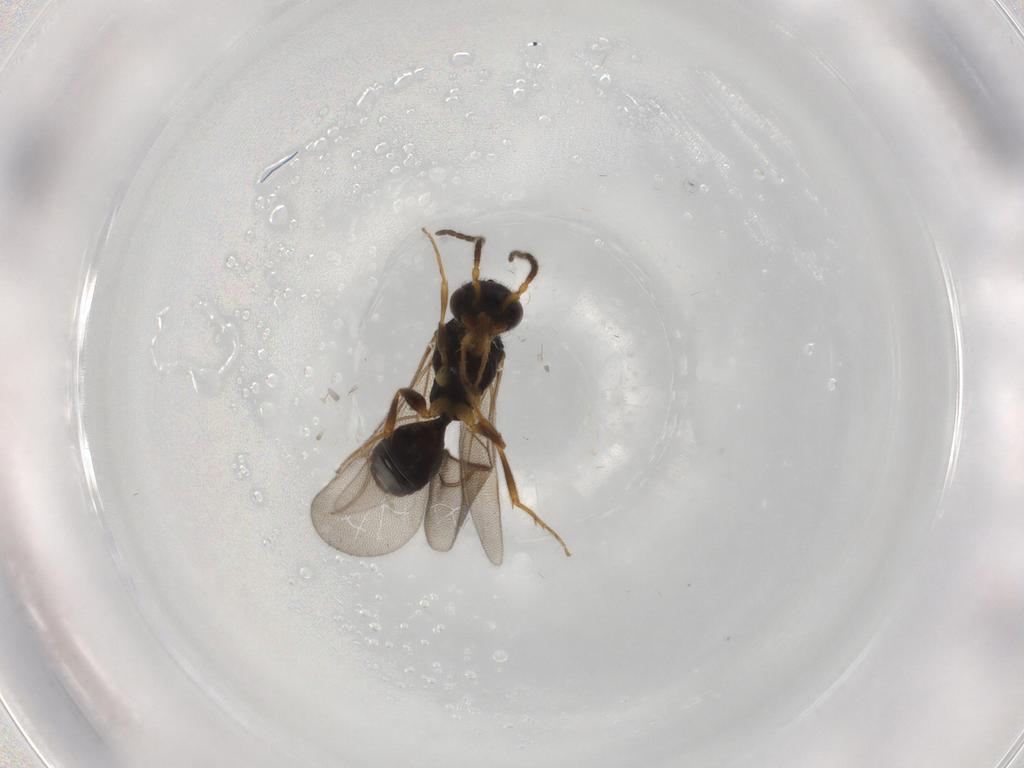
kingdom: Animalia
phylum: Arthropoda
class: Insecta
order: Hymenoptera
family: Bethylidae
